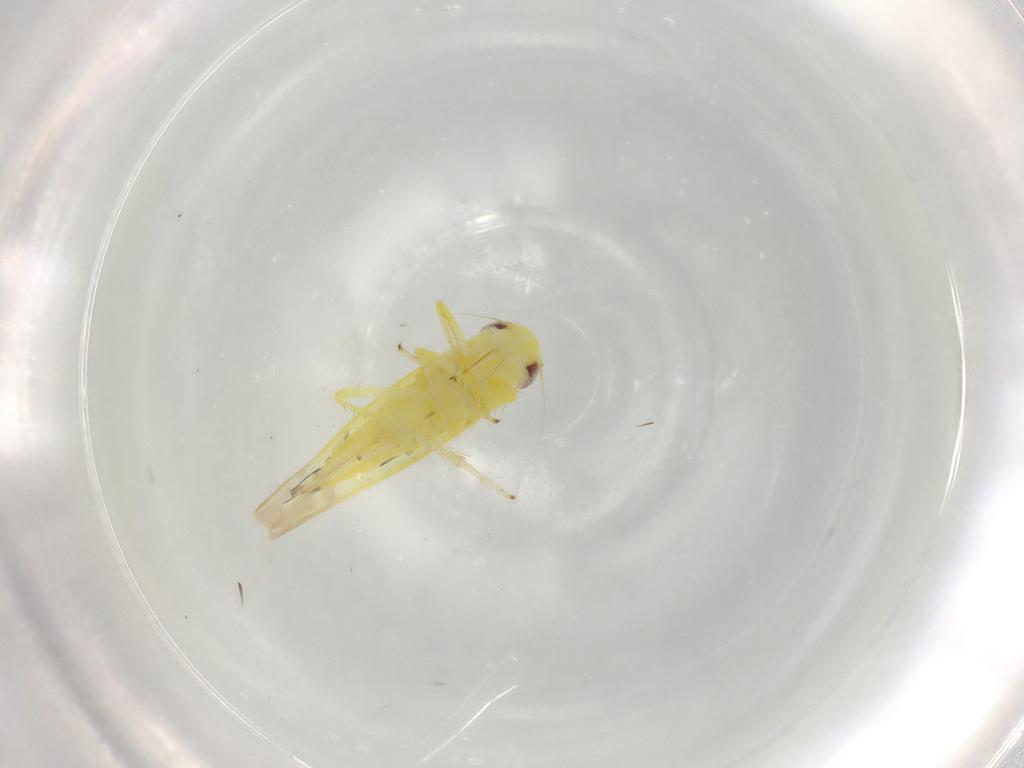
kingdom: Animalia
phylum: Arthropoda
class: Insecta
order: Hemiptera
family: Cicadellidae
